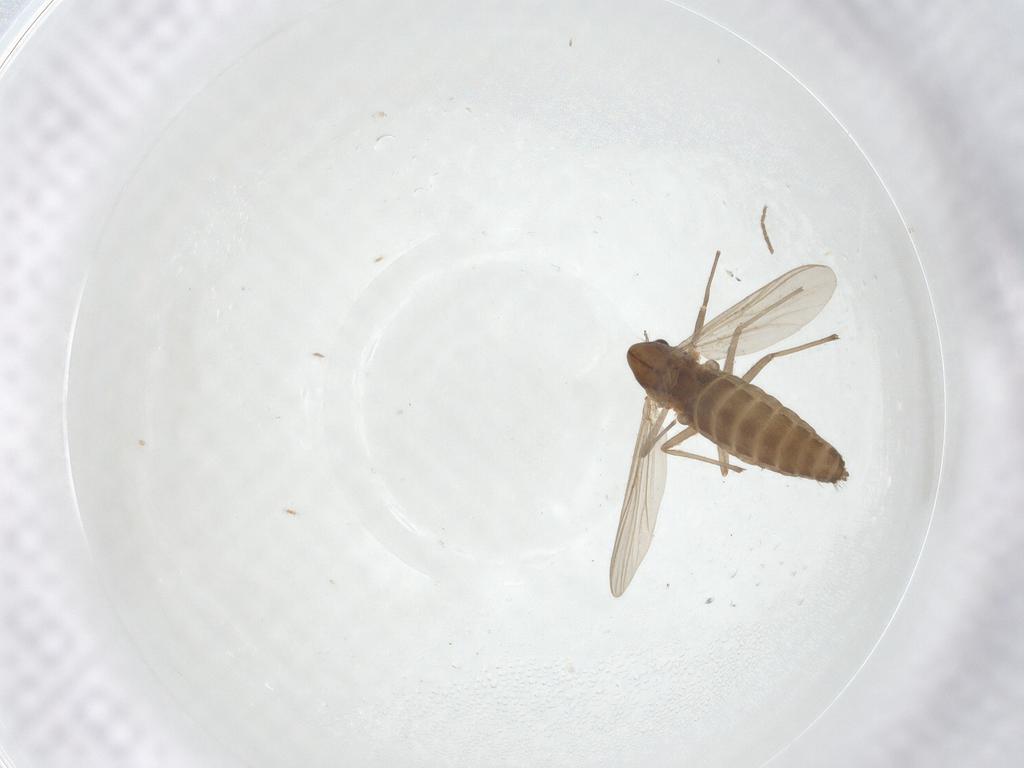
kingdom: Animalia
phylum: Arthropoda
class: Insecta
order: Diptera
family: Chironomidae
